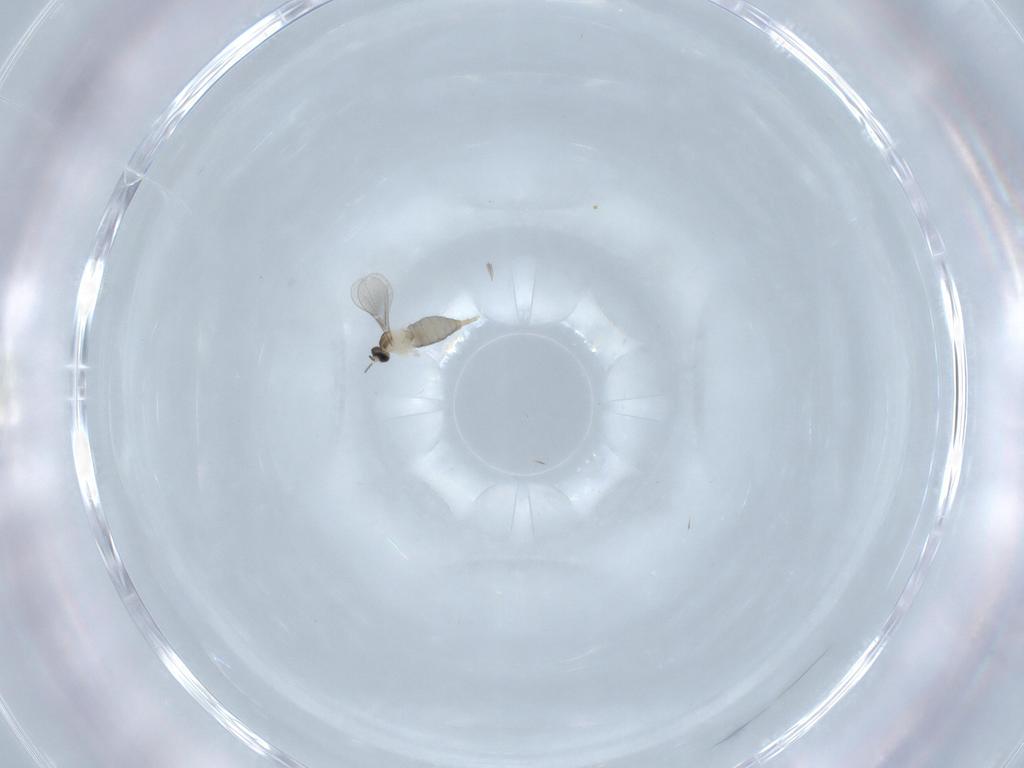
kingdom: Animalia
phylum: Arthropoda
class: Insecta
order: Diptera
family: Cecidomyiidae
